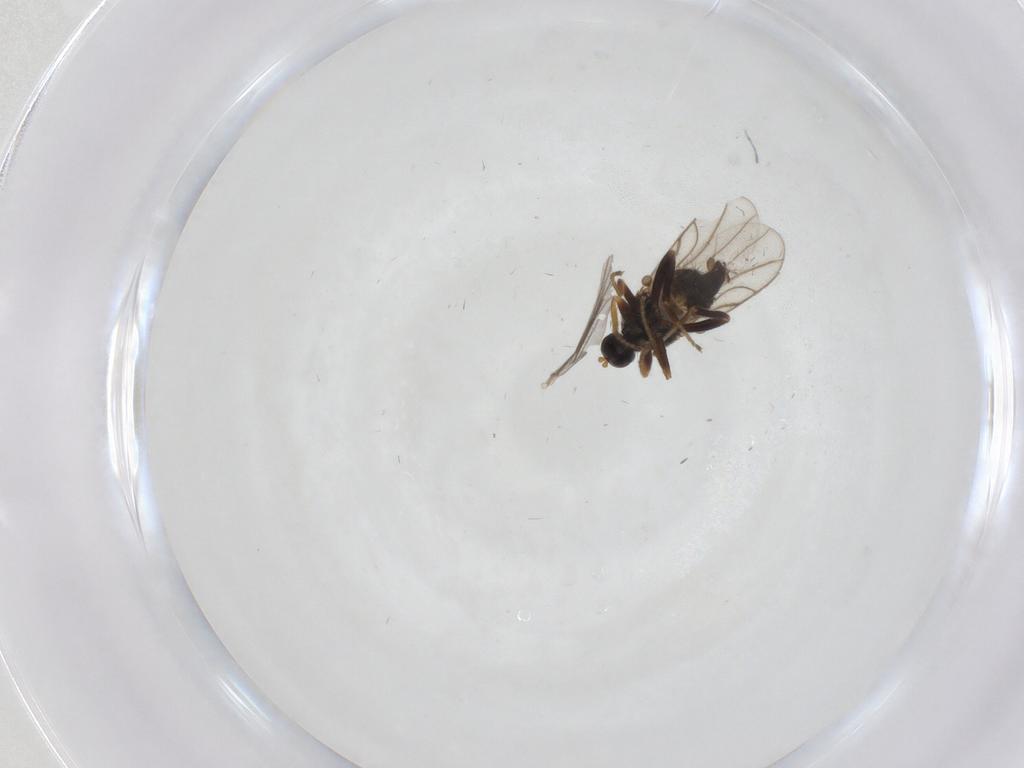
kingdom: Animalia
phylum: Arthropoda
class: Insecta
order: Diptera
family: Hybotidae
